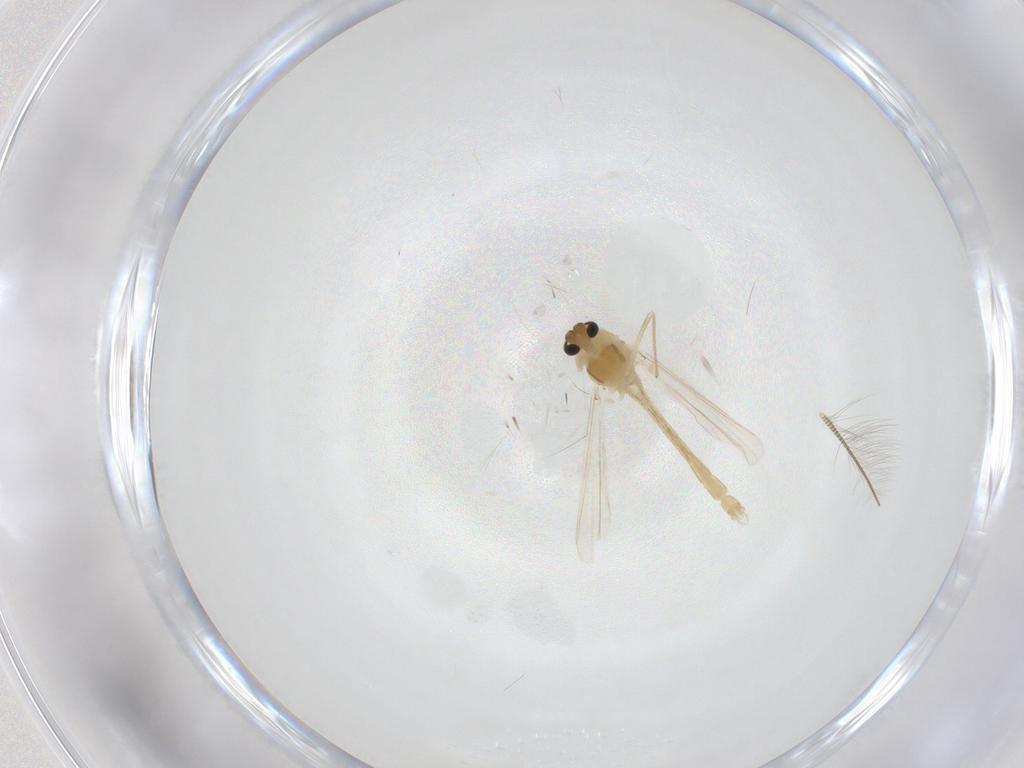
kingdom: Animalia
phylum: Arthropoda
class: Insecta
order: Diptera
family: Chironomidae
